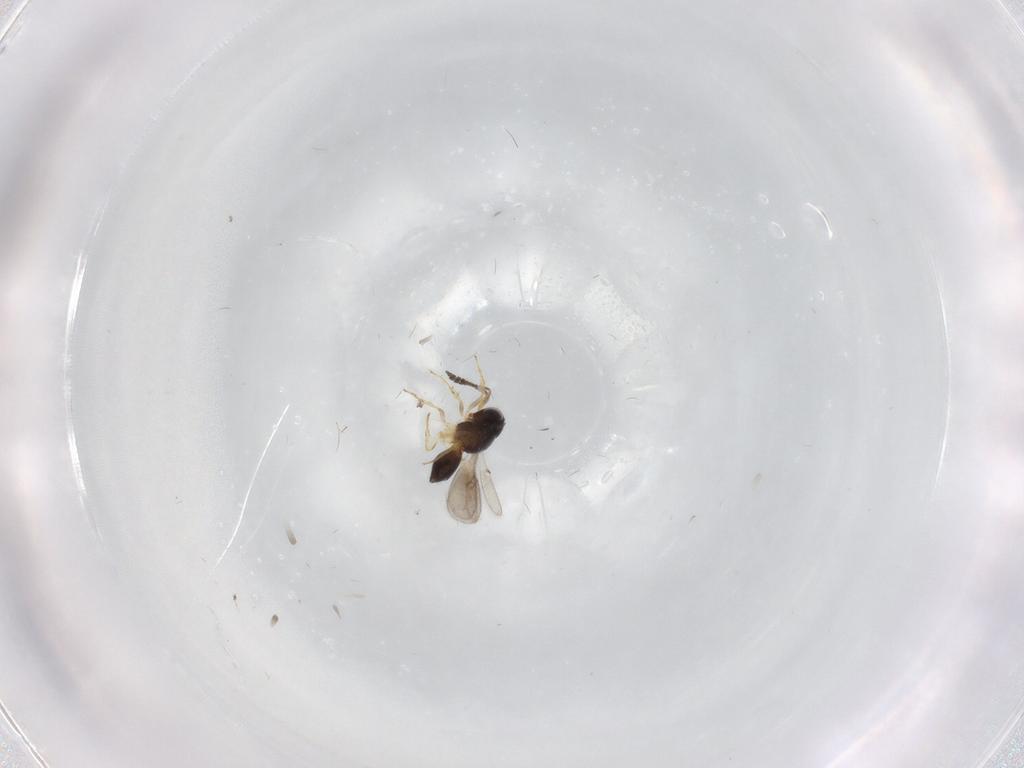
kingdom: Animalia
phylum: Arthropoda
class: Insecta
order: Hymenoptera
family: Scelionidae
